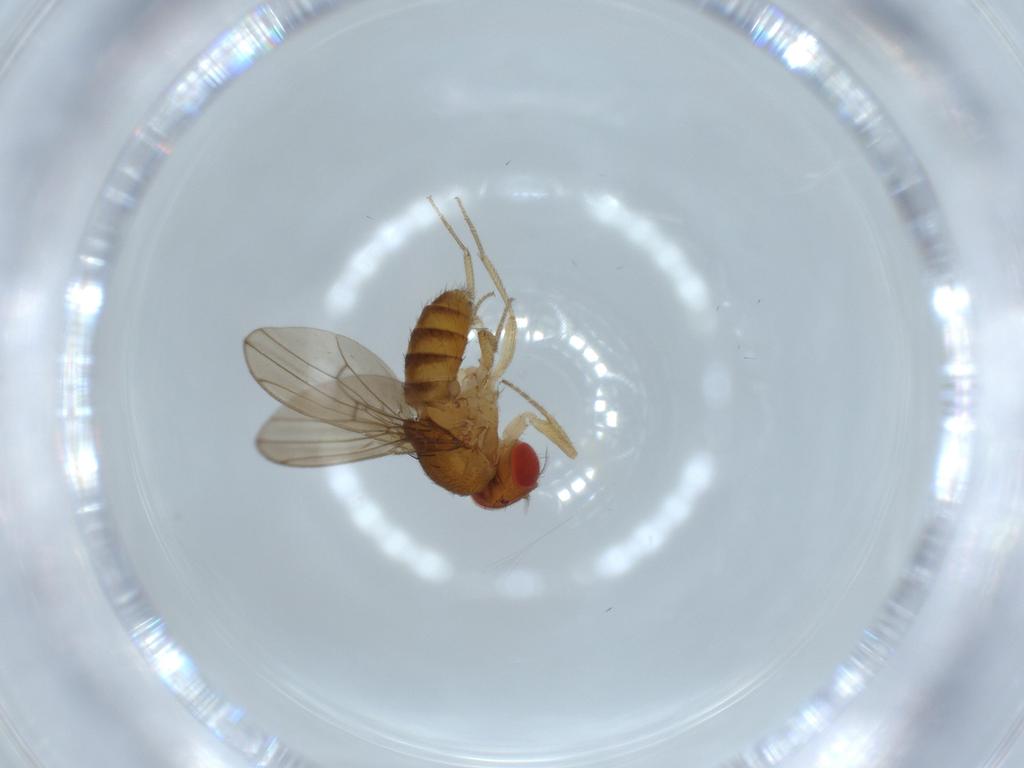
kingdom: Animalia
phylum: Arthropoda
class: Insecta
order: Diptera
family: Drosophilidae
